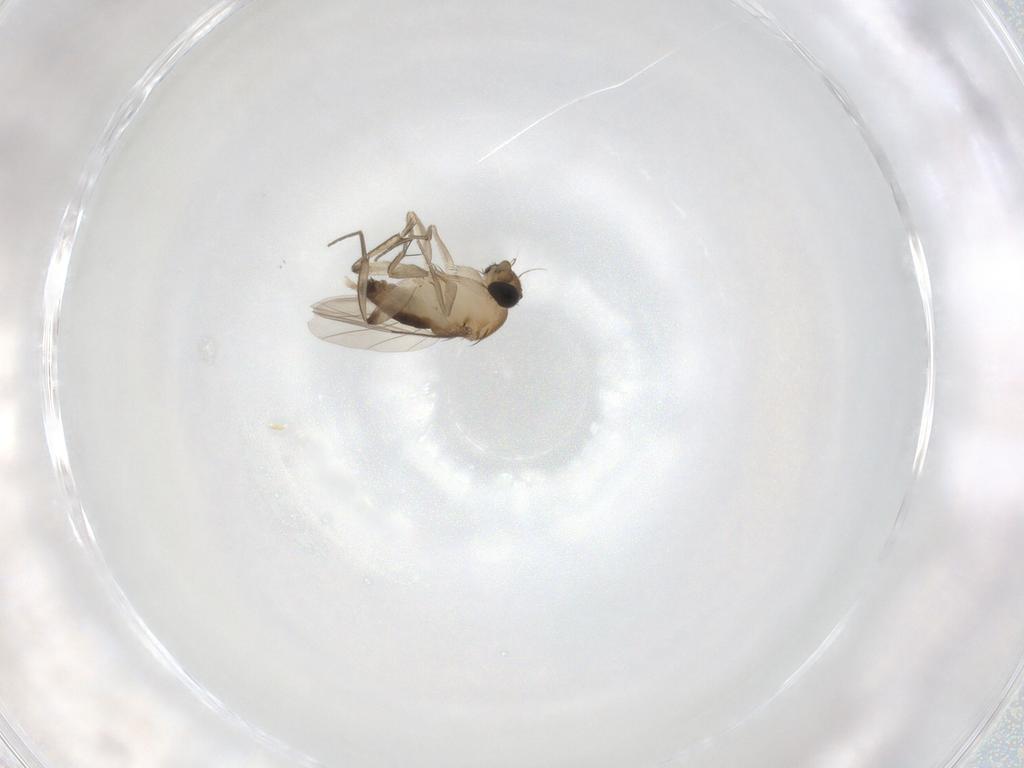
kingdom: Animalia
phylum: Arthropoda
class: Insecta
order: Diptera
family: Phoridae
